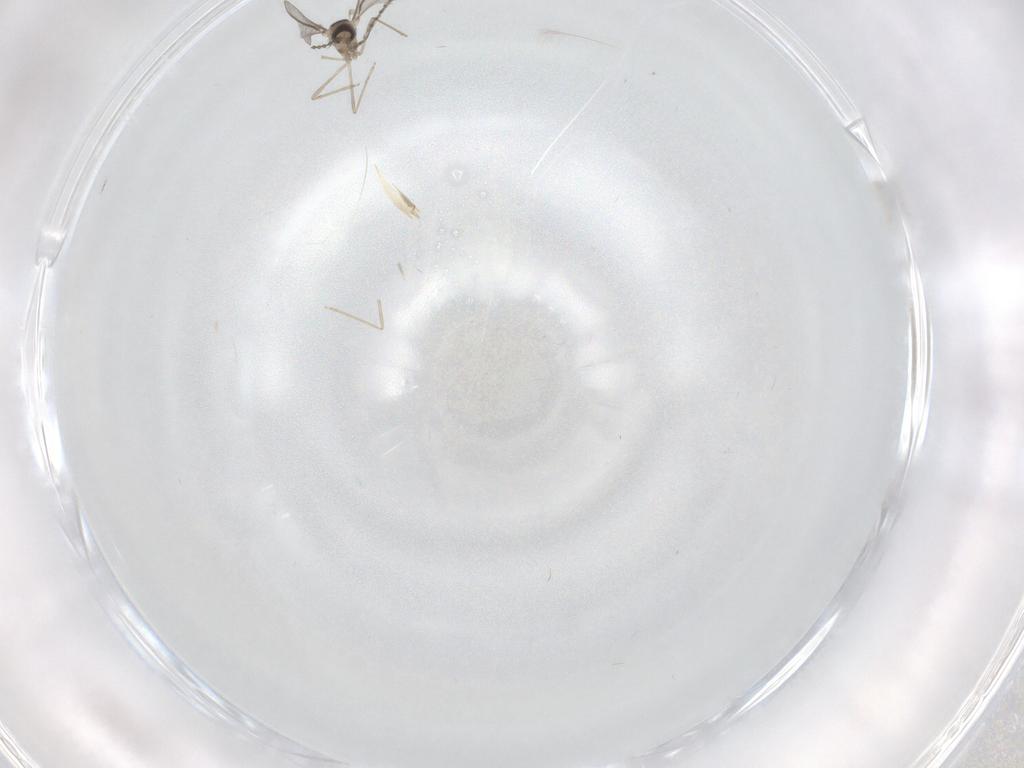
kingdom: Animalia
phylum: Arthropoda
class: Insecta
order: Diptera
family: Cecidomyiidae
